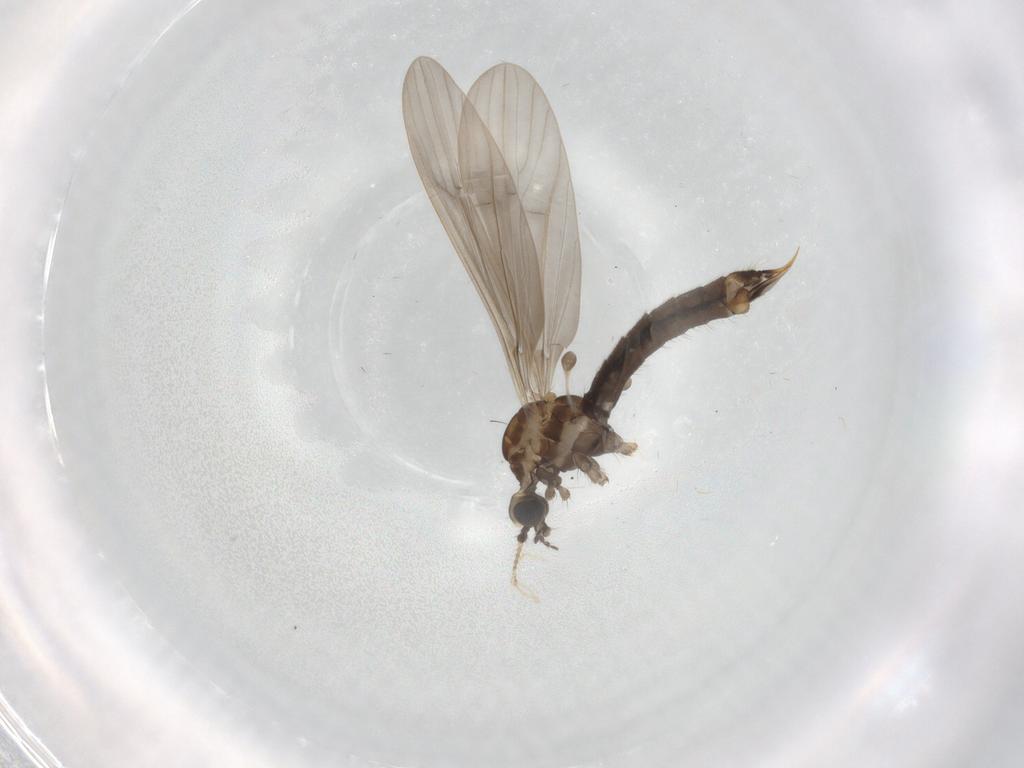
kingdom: Animalia
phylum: Arthropoda
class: Insecta
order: Diptera
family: Limoniidae
